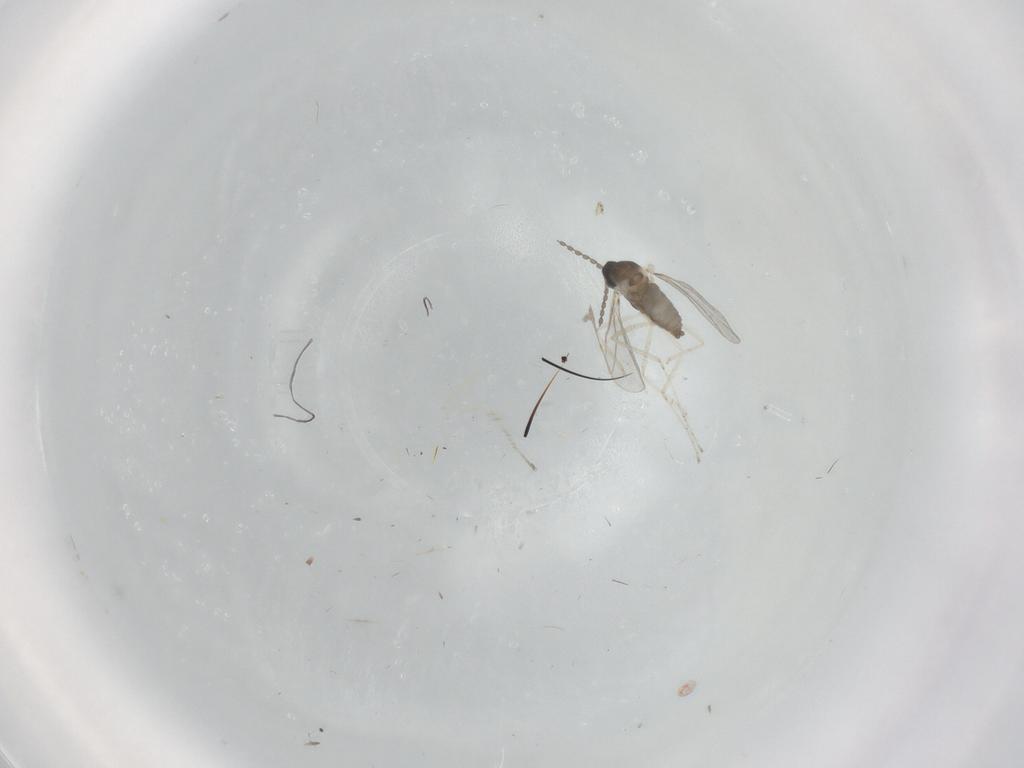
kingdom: Animalia
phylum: Arthropoda
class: Insecta
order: Diptera
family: Cecidomyiidae
